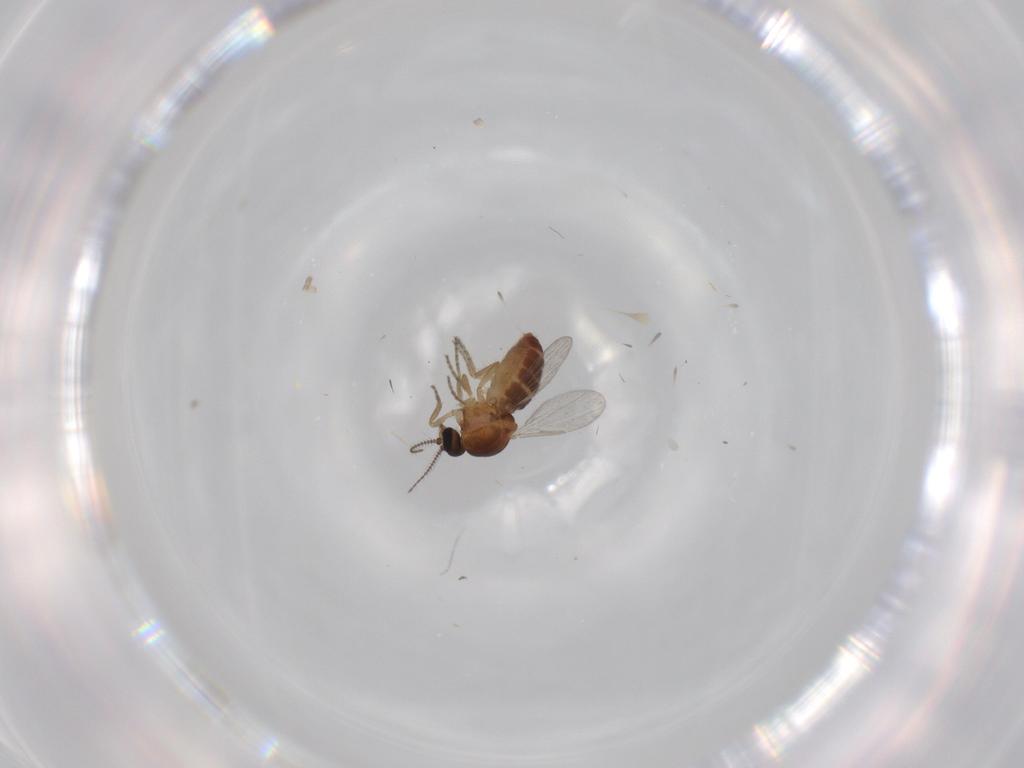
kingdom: Animalia
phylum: Arthropoda
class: Insecta
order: Diptera
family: Ceratopogonidae
